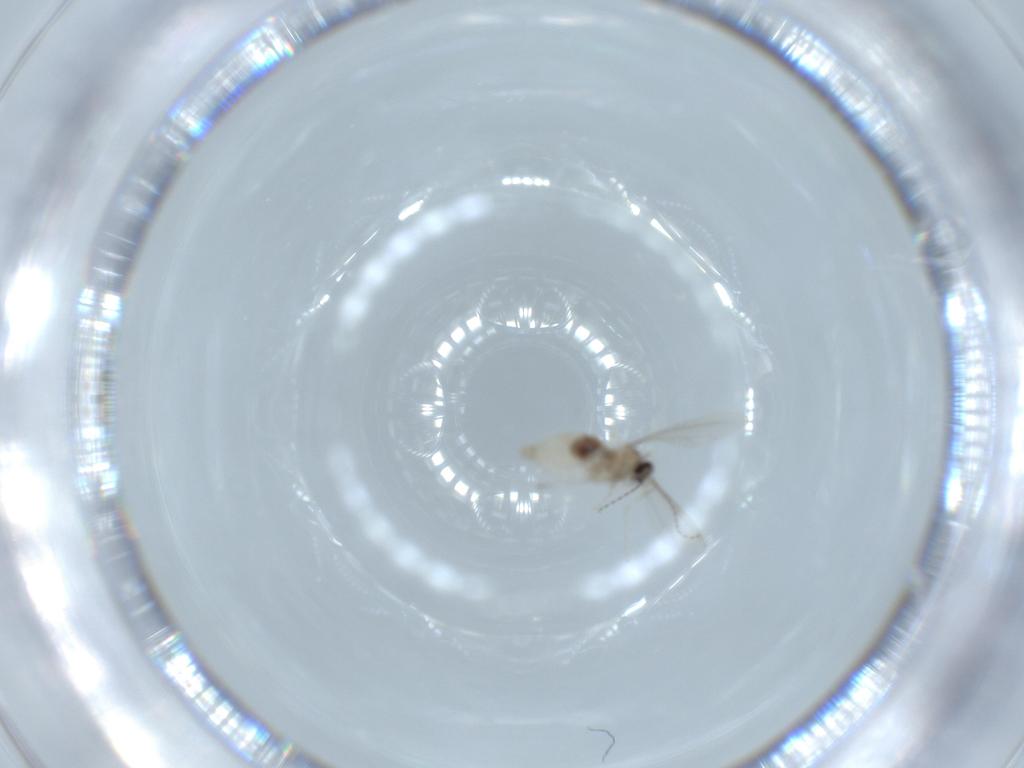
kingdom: Animalia
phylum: Arthropoda
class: Insecta
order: Diptera
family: Cecidomyiidae
